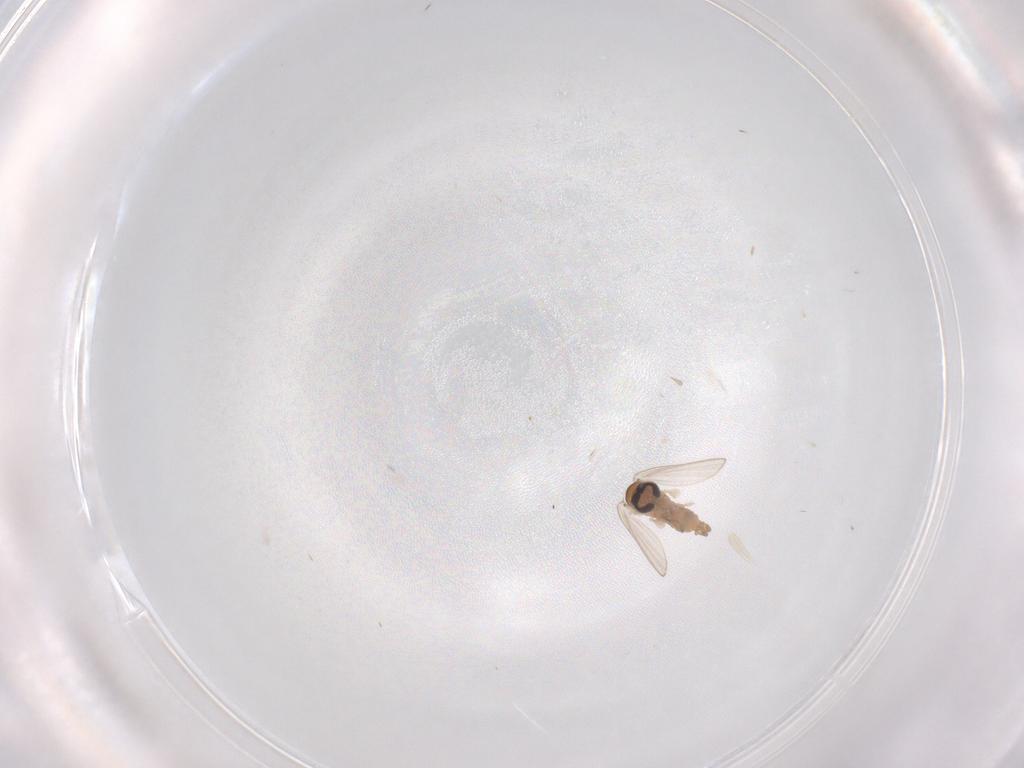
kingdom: Animalia
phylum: Arthropoda
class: Insecta
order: Diptera
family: Psychodidae
